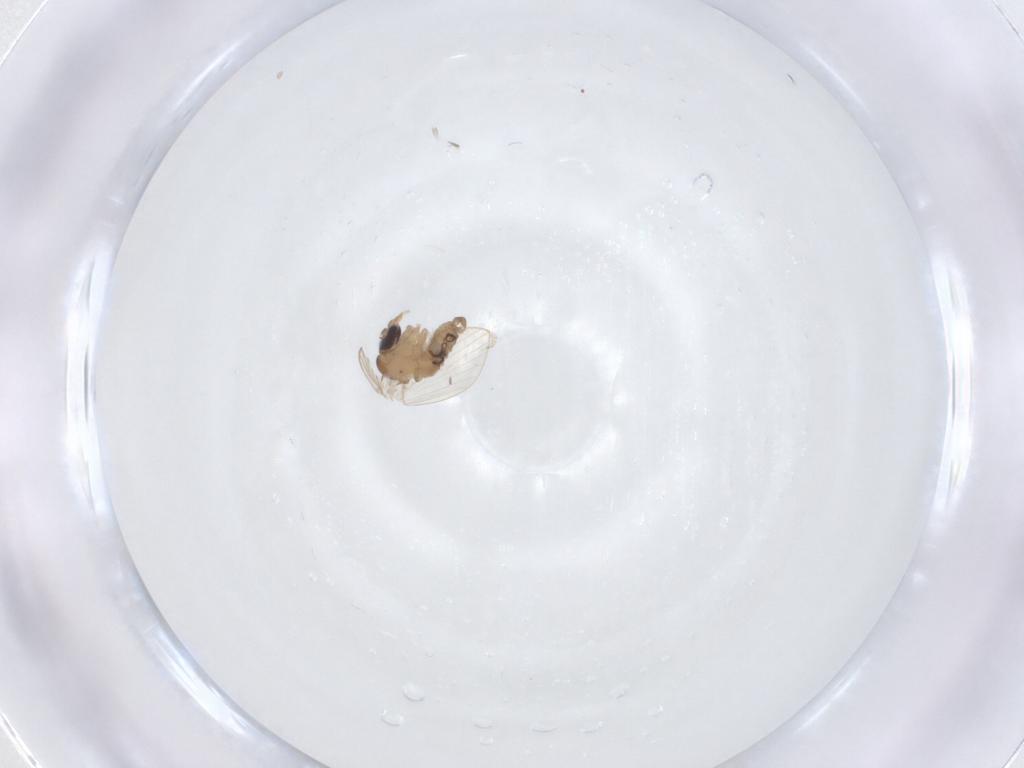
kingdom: Animalia
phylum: Arthropoda
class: Insecta
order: Diptera
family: Psychodidae
